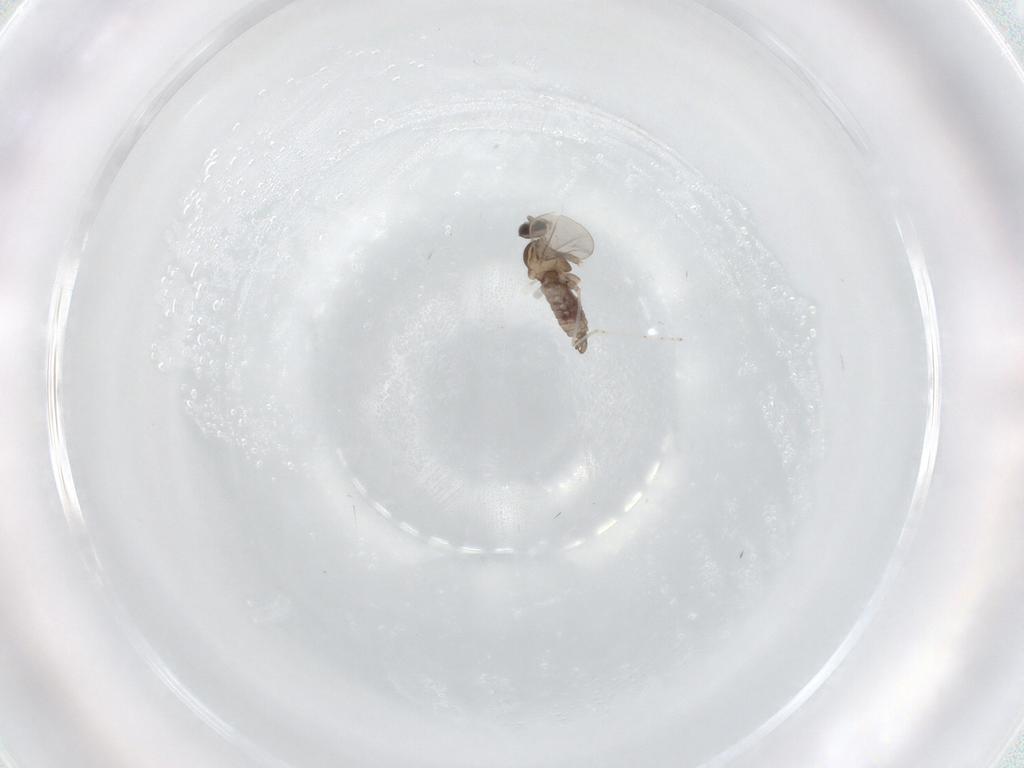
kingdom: Animalia
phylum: Arthropoda
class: Insecta
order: Diptera
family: Cecidomyiidae
